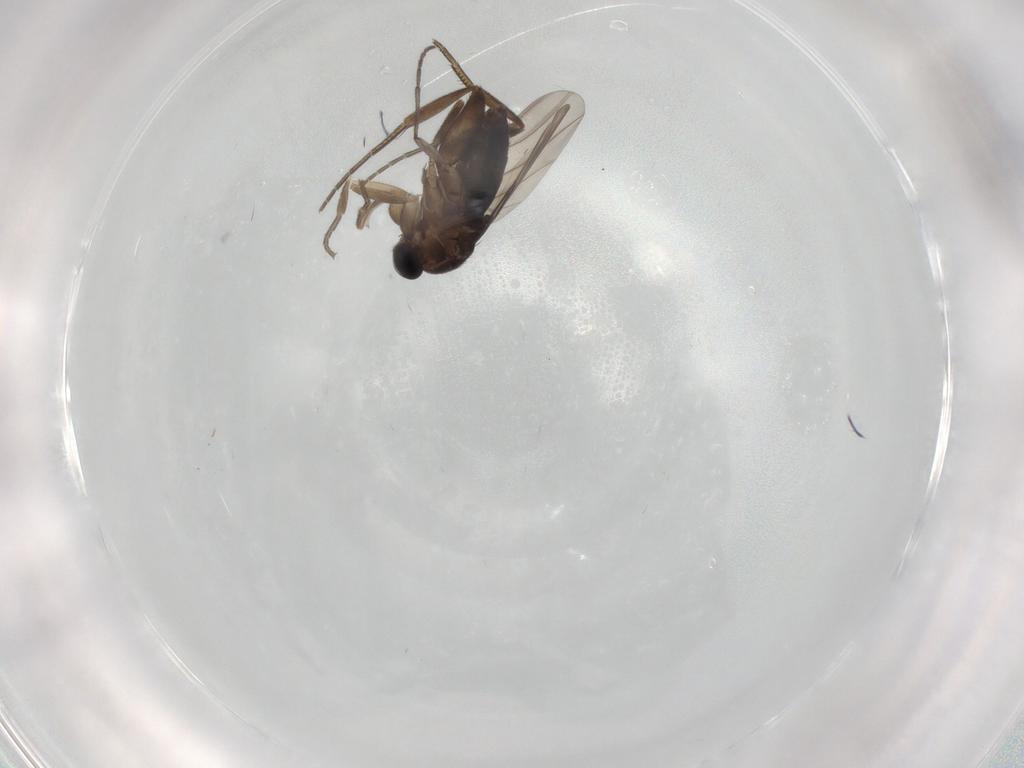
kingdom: Animalia
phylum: Arthropoda
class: Insecta
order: Diptera
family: Phoridae
